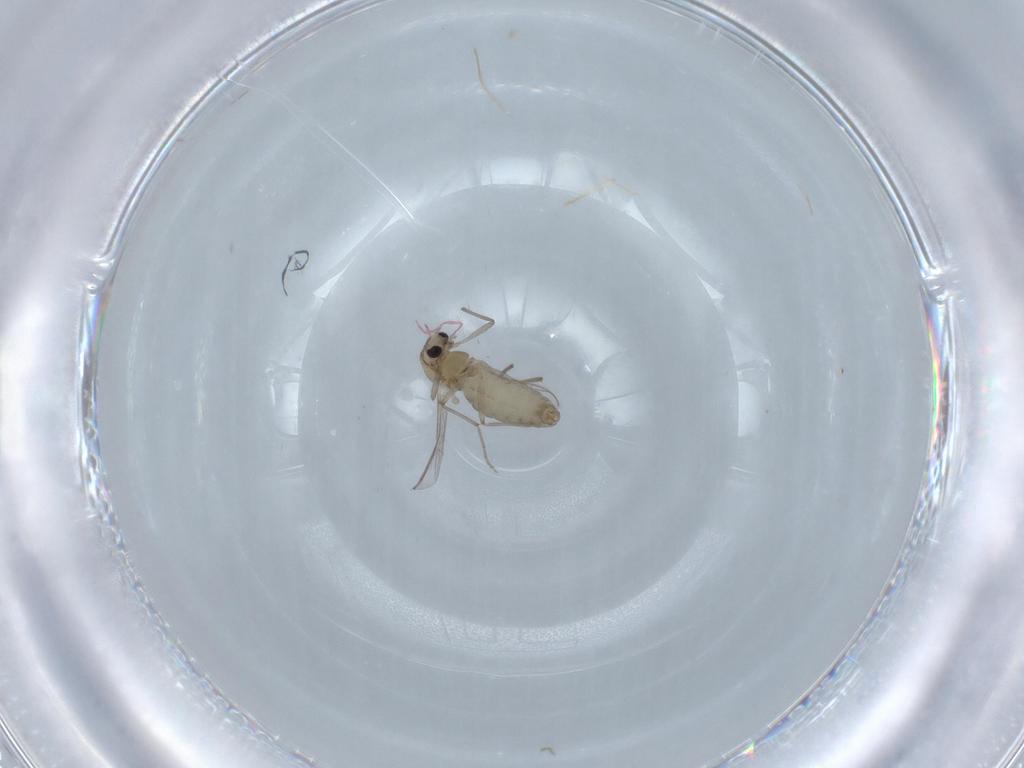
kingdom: Animalia
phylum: Arthropoda
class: Insecta
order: Diptera
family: Chironomidae
